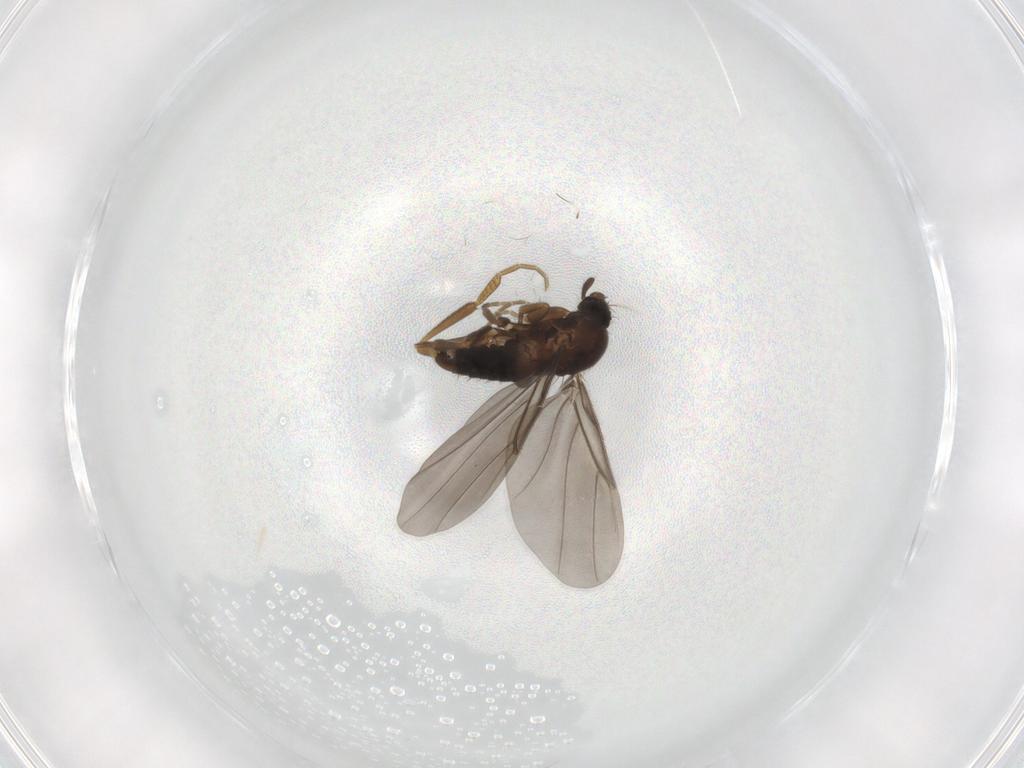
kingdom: Animalia
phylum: Arthropoda
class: Insecta
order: Diptera
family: Chironomidae
